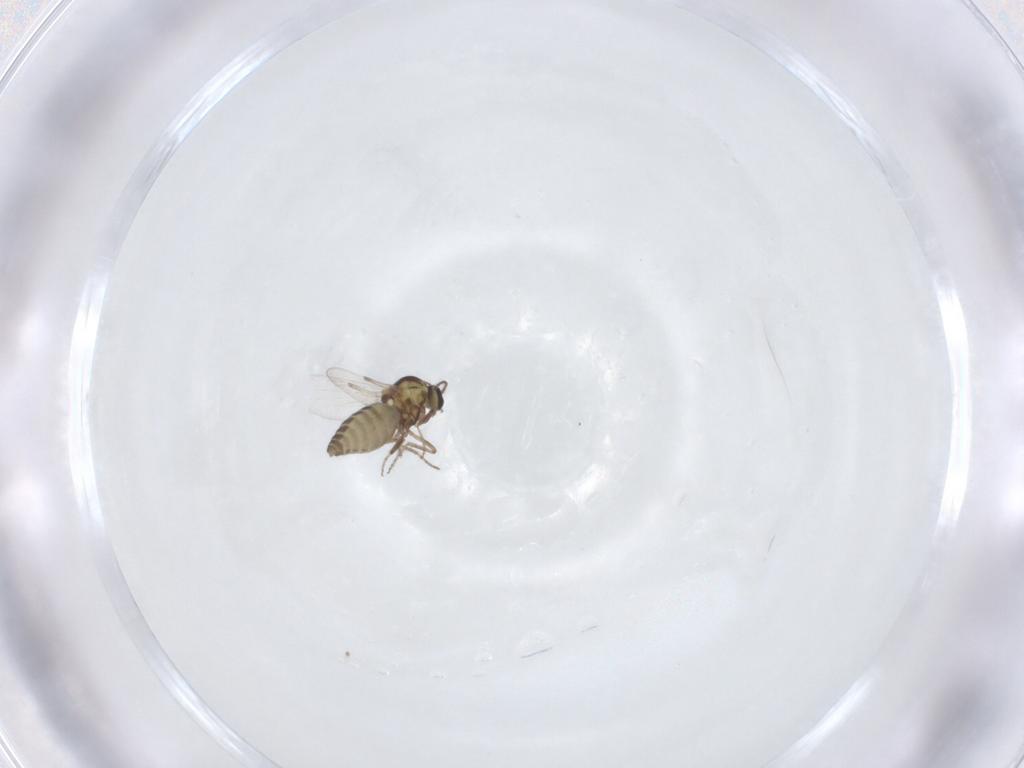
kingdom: Animalia
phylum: Arthropoda
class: Insecta
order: Diptera
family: Ceratopogonidae
